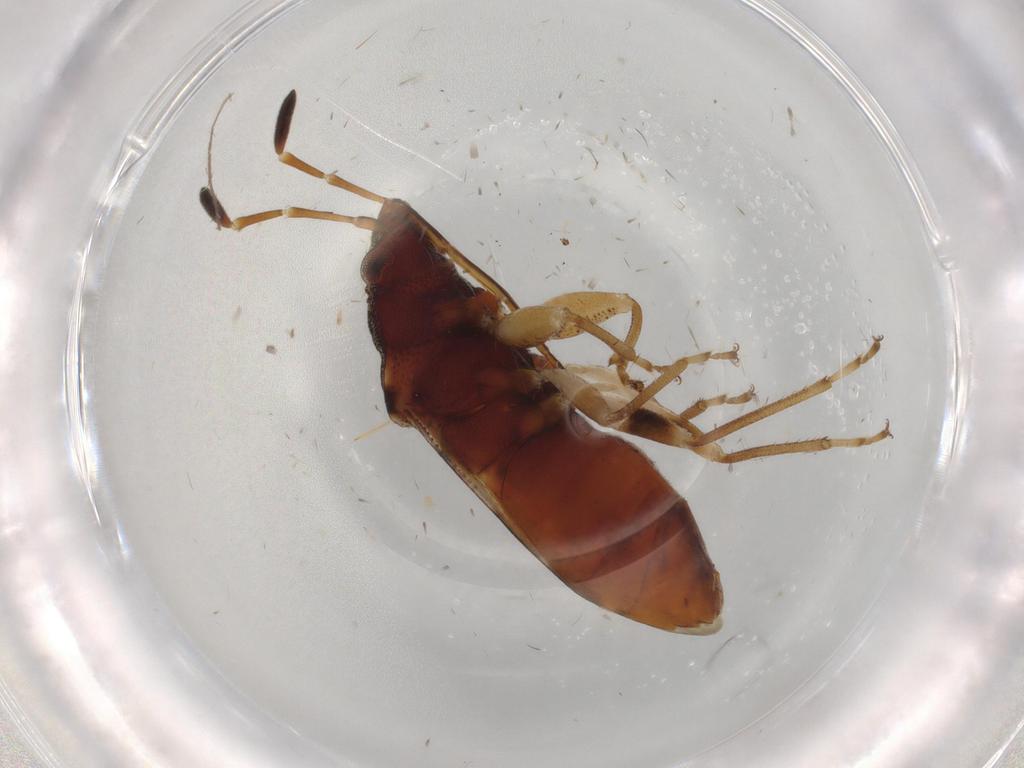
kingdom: Animalia
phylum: Arthropoda
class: Insecta
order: Hemiptera
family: Rhyparochromidae
